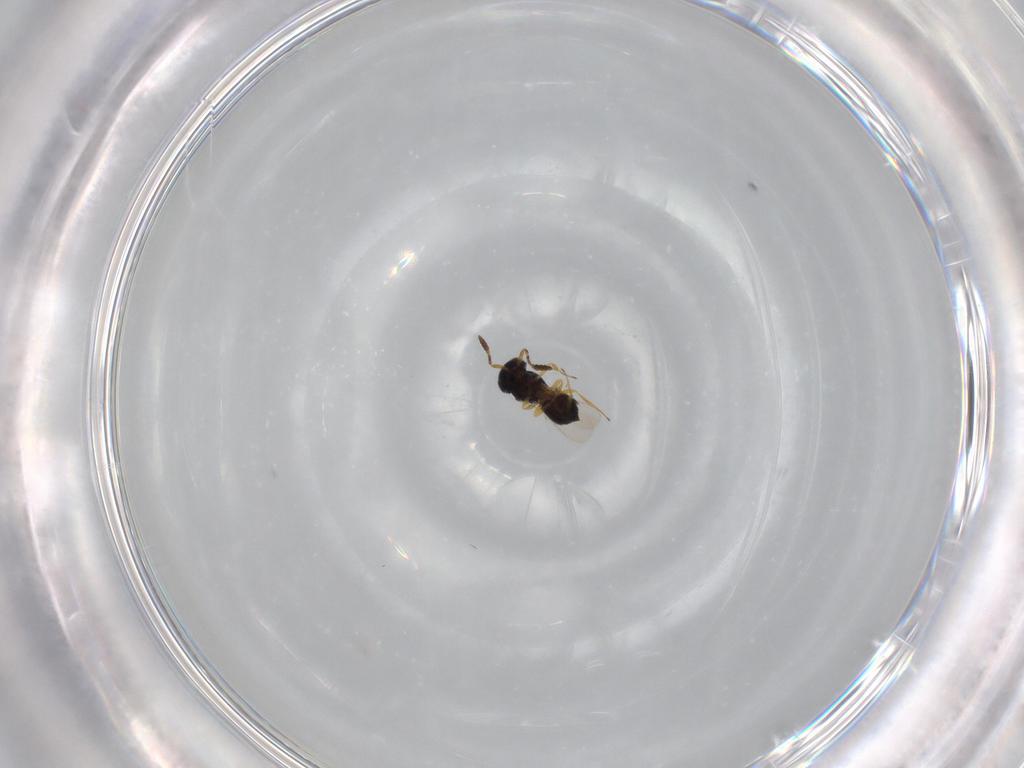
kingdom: Animalia
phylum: Arthropoda
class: Insecta
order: Hymenoptera
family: Scelionidae
